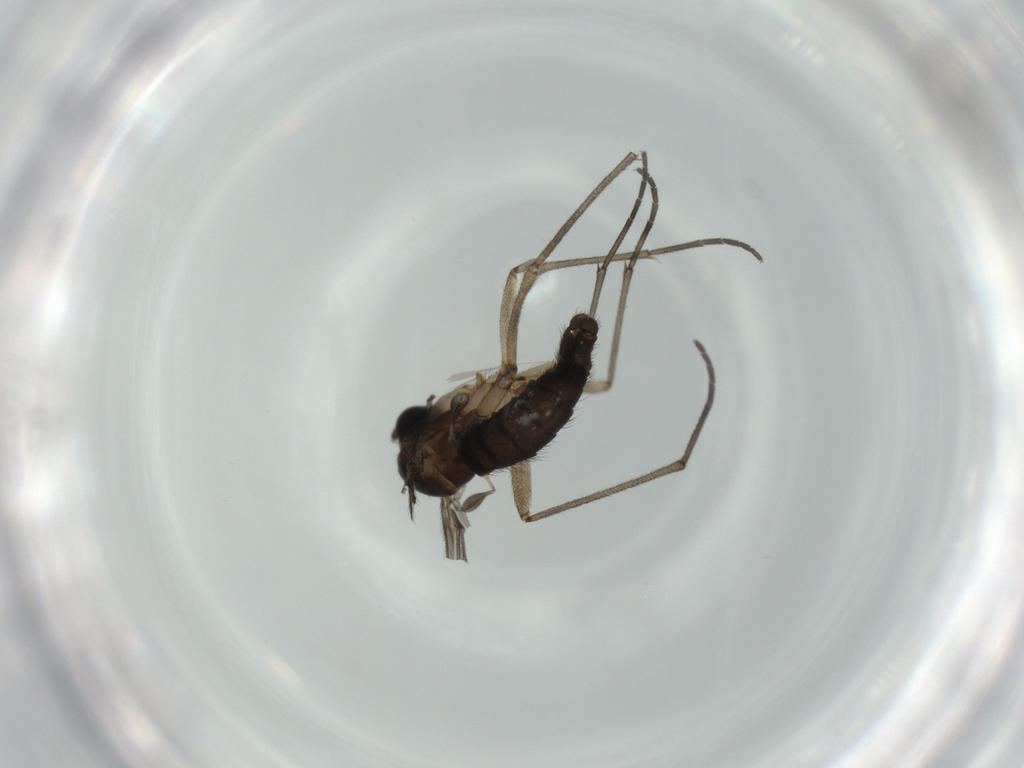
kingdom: Animalia
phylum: Arthropoda
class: Insecta
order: Diptera
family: Sciaridae
